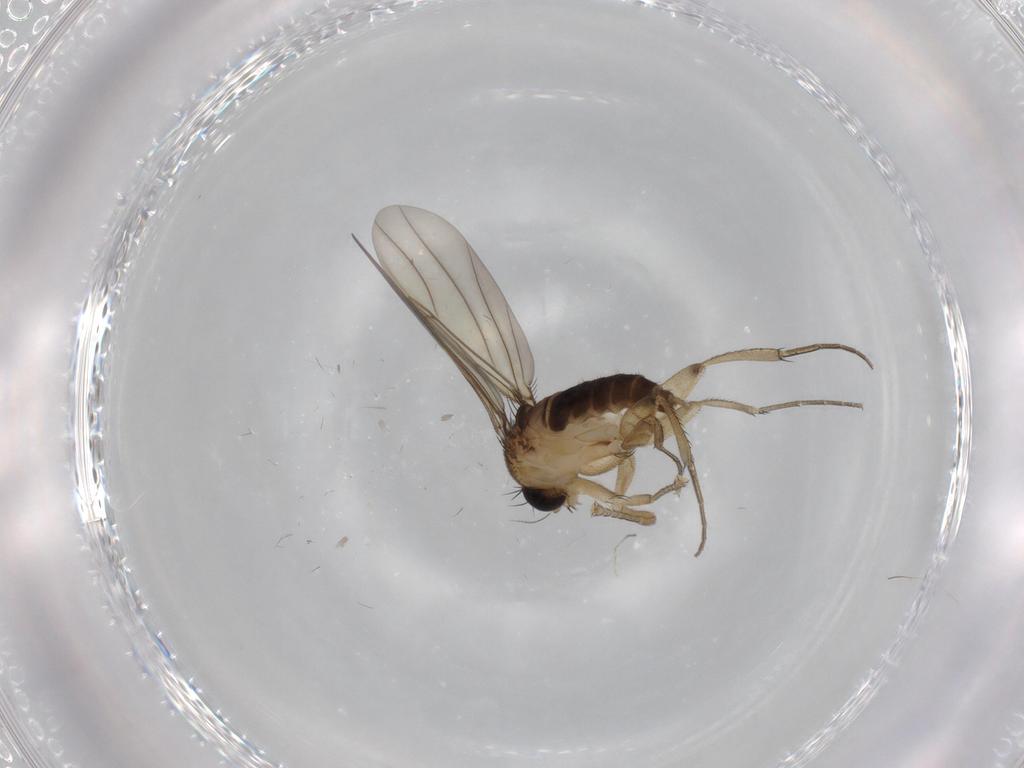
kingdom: Animalia
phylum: Arthropoda
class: Insecta
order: Diptera
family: Phoridae
